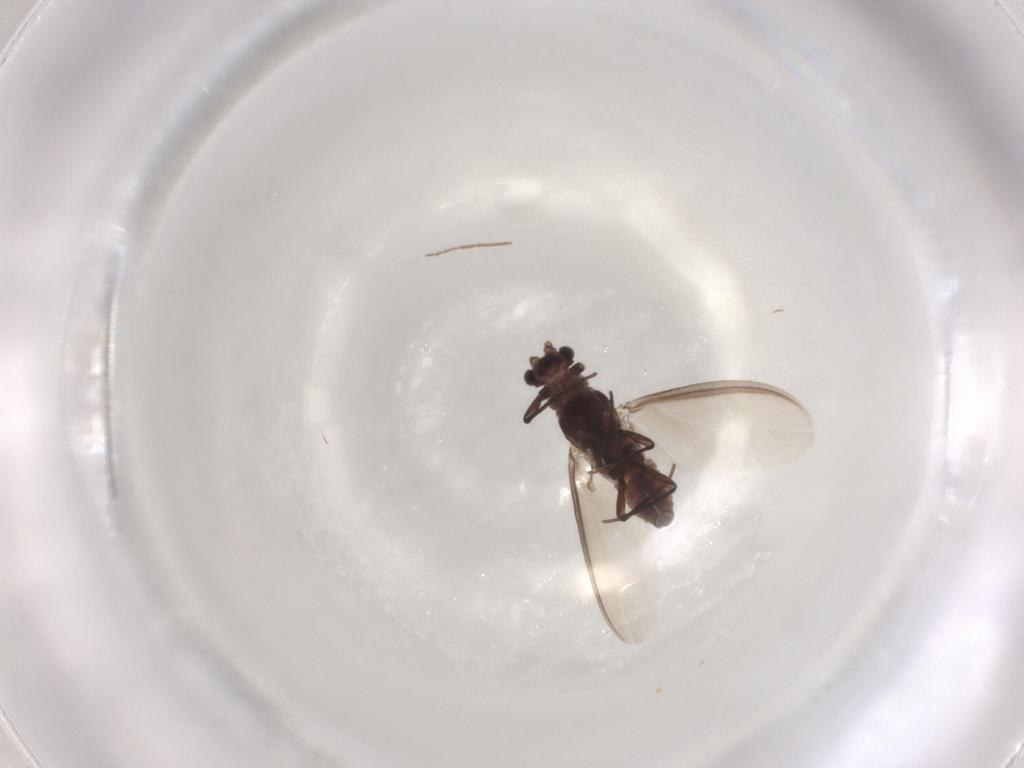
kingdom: Animalia
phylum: Arthropoda
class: Insecta
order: Diptera
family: Chironomidae
